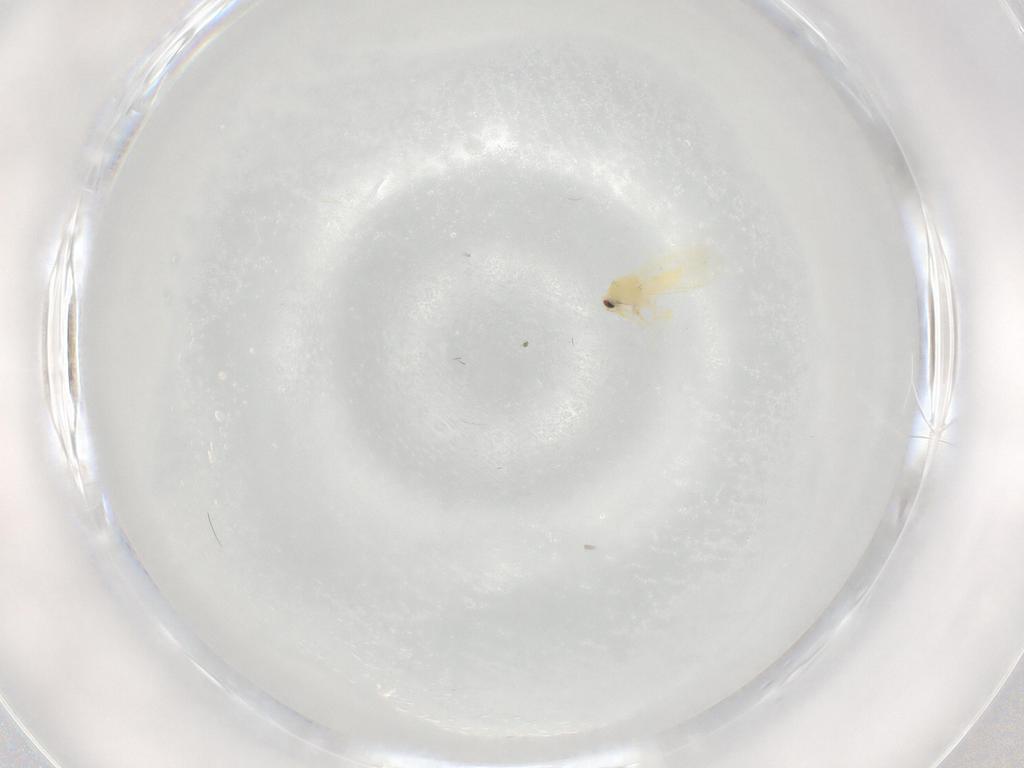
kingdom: Animalia
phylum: Arthropoda
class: Insecta
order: Hemiptera
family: Aleyrodidae
